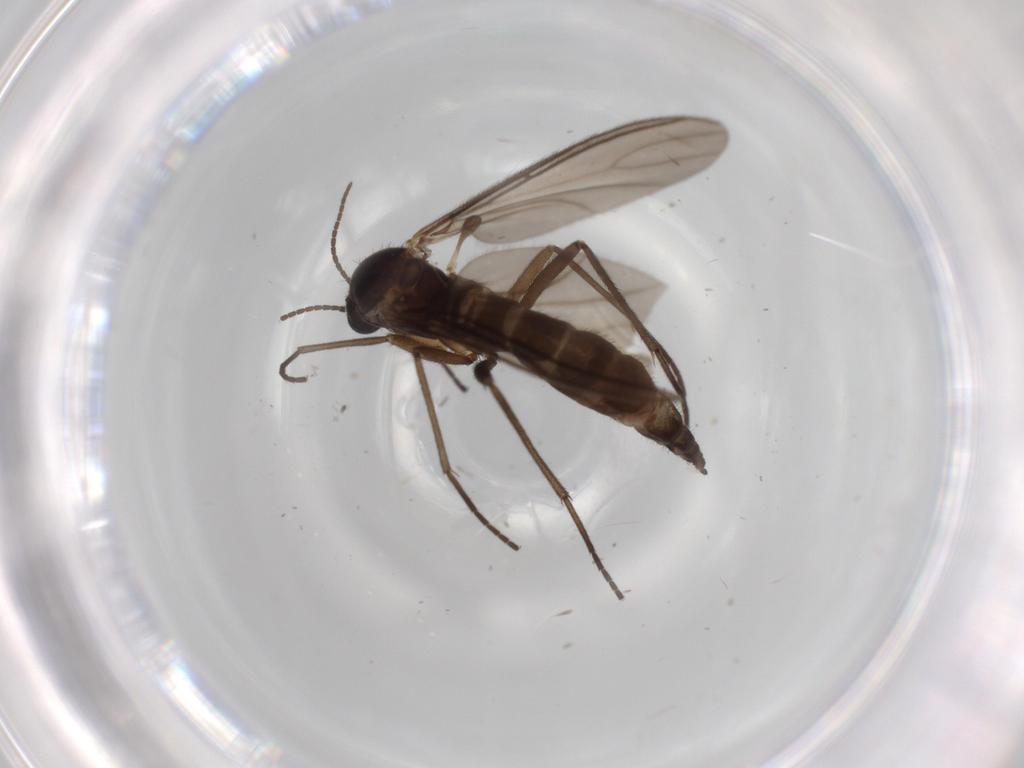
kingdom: Animalia
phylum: Arthropoda
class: Insecta
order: Diptera
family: Sciaridae
